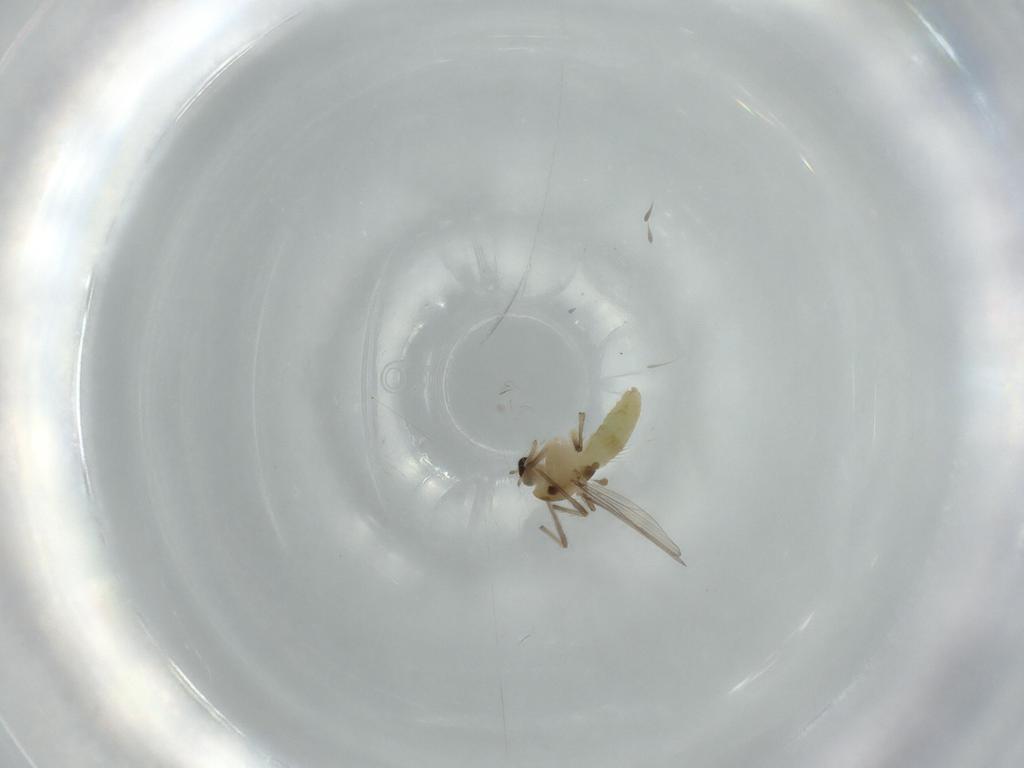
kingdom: Animalia
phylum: Arthropoda
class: Insecta
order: Diptera
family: Chironomidae
